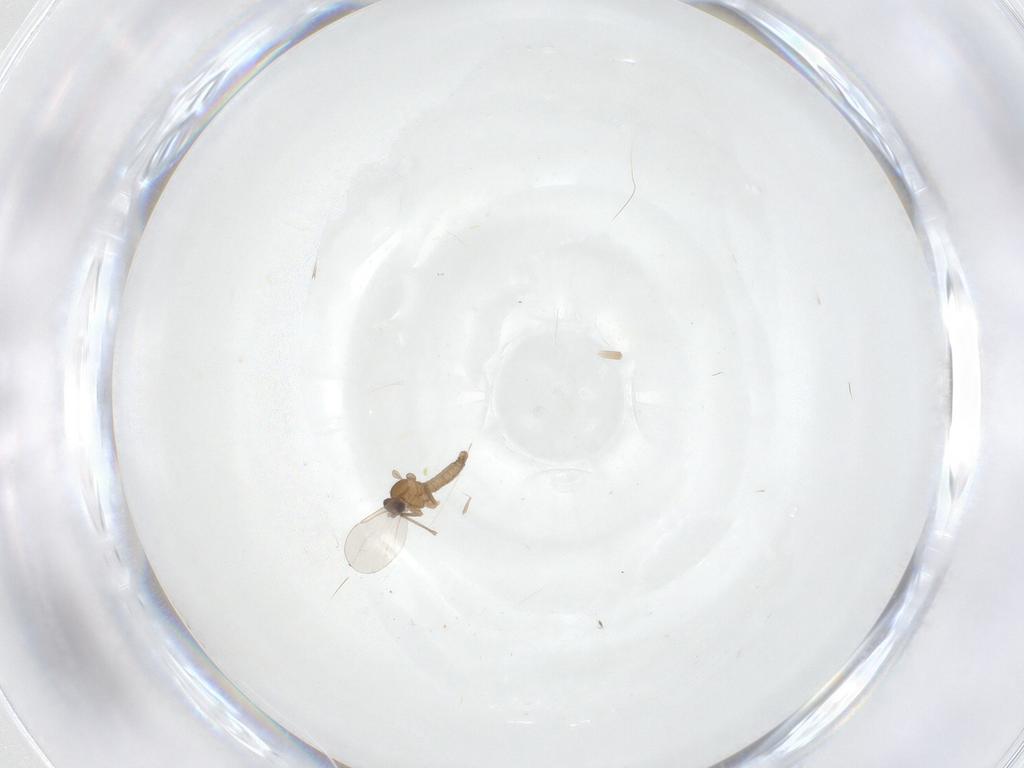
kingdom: Animalia
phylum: Arthropoda
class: Insecta
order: Diptera
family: Cecidomyiidae
